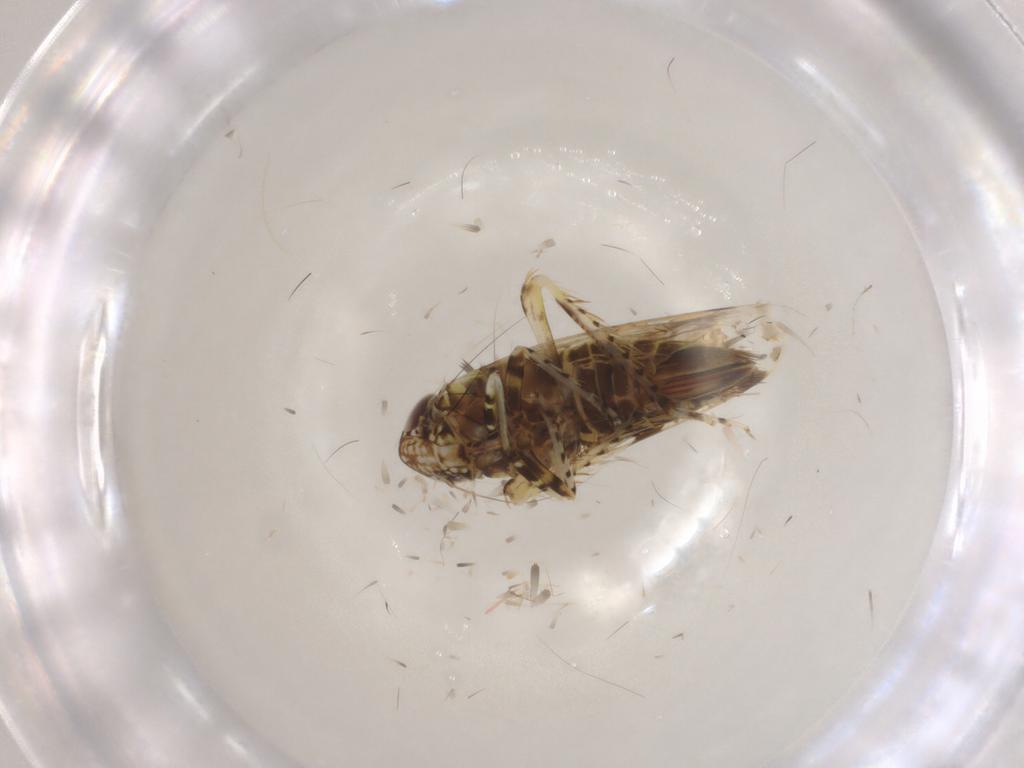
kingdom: Animalia
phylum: Arthropoda
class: Insecta
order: Hemiptera
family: Cicadellidae
